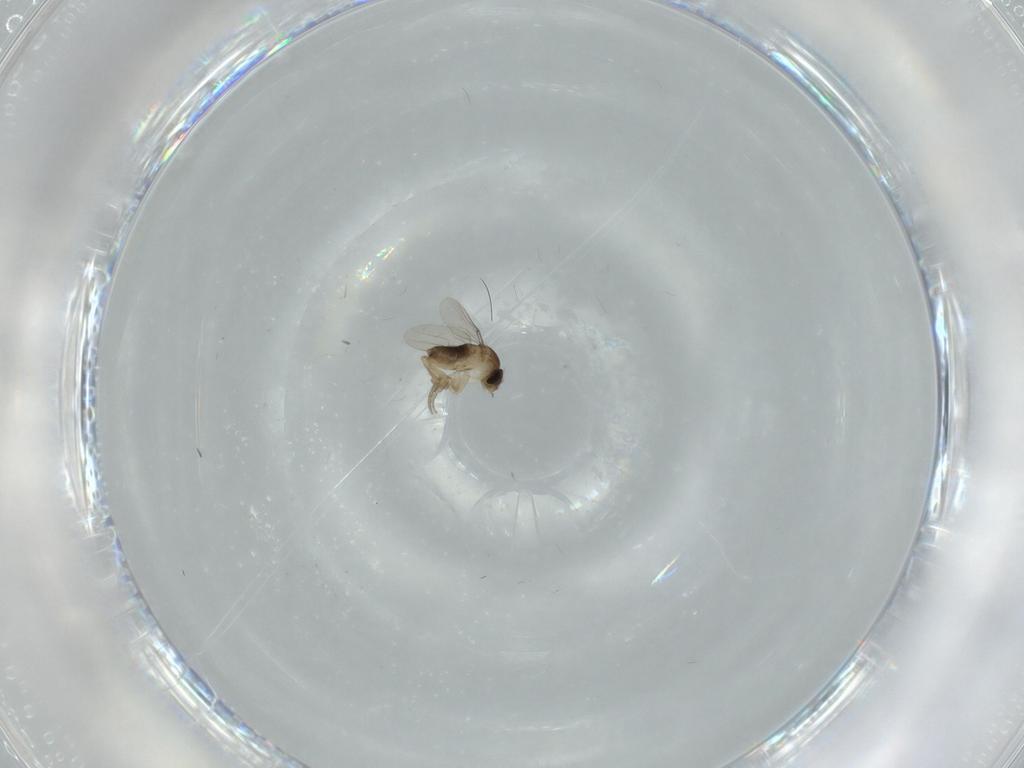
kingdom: Animalia
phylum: Arthropoda
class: Insecta
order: Diptera
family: Phoridae
